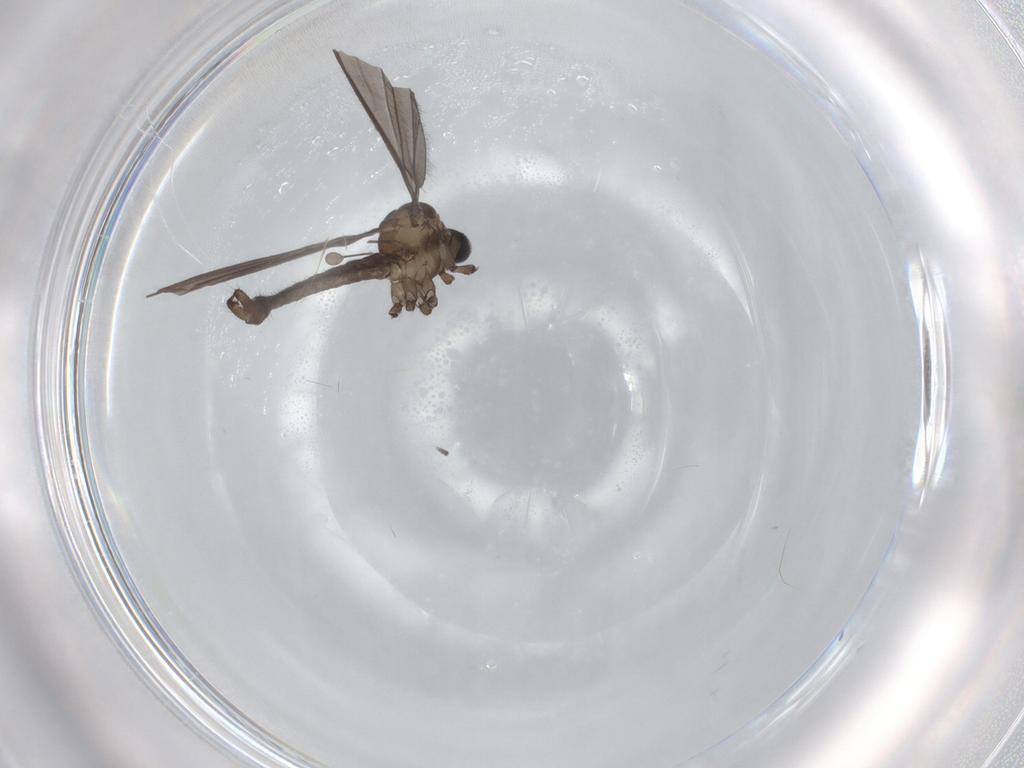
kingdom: Animalia
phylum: Arthropoda
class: Insecta
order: Diptera
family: Limoniidae
